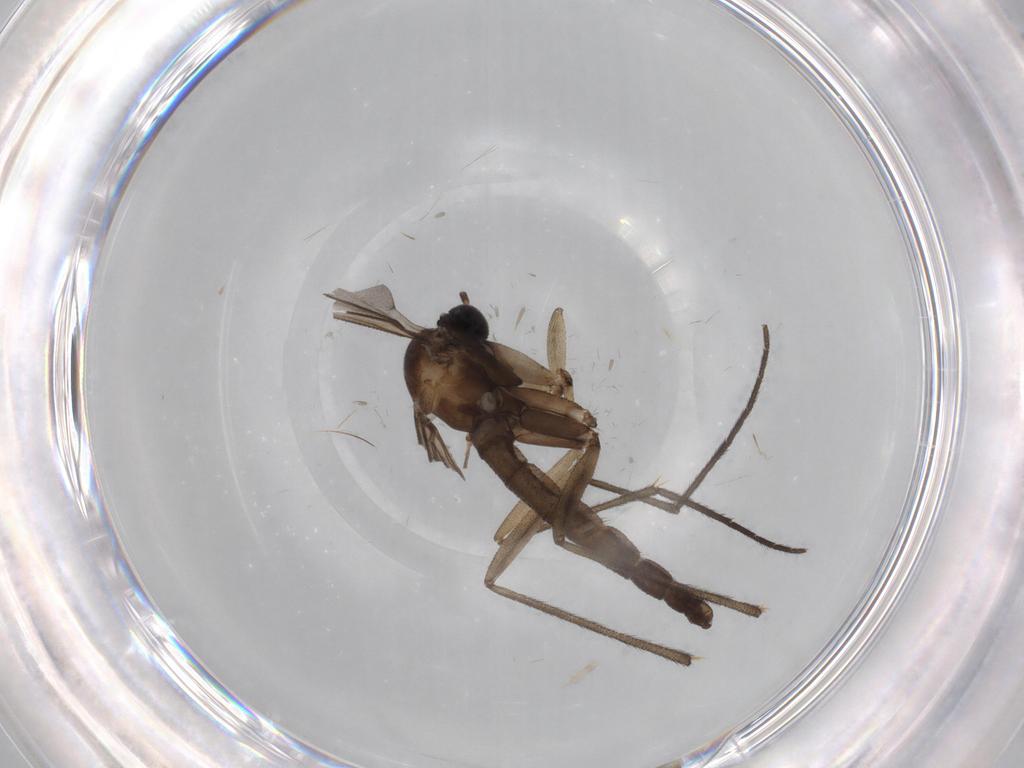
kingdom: Animalia
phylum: Arthropoda
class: Insecta
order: Diptera
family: Sciaridae
